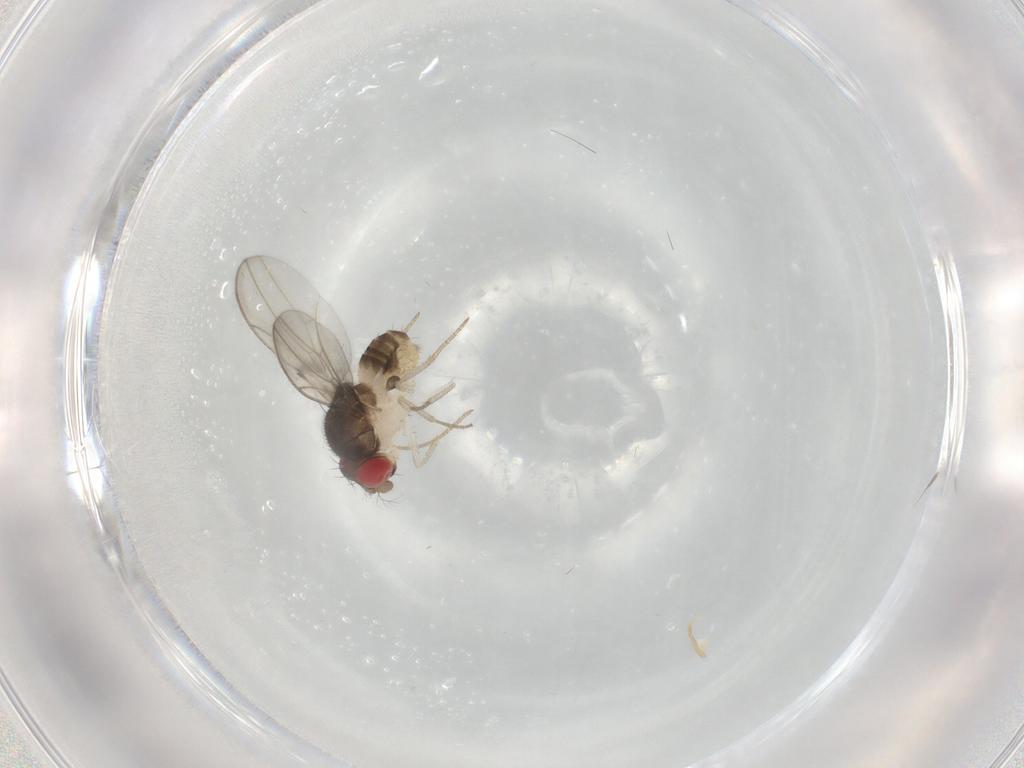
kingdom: Animalia
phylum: Arthropoda
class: Insecta
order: Diptera
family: Drosophilidae
